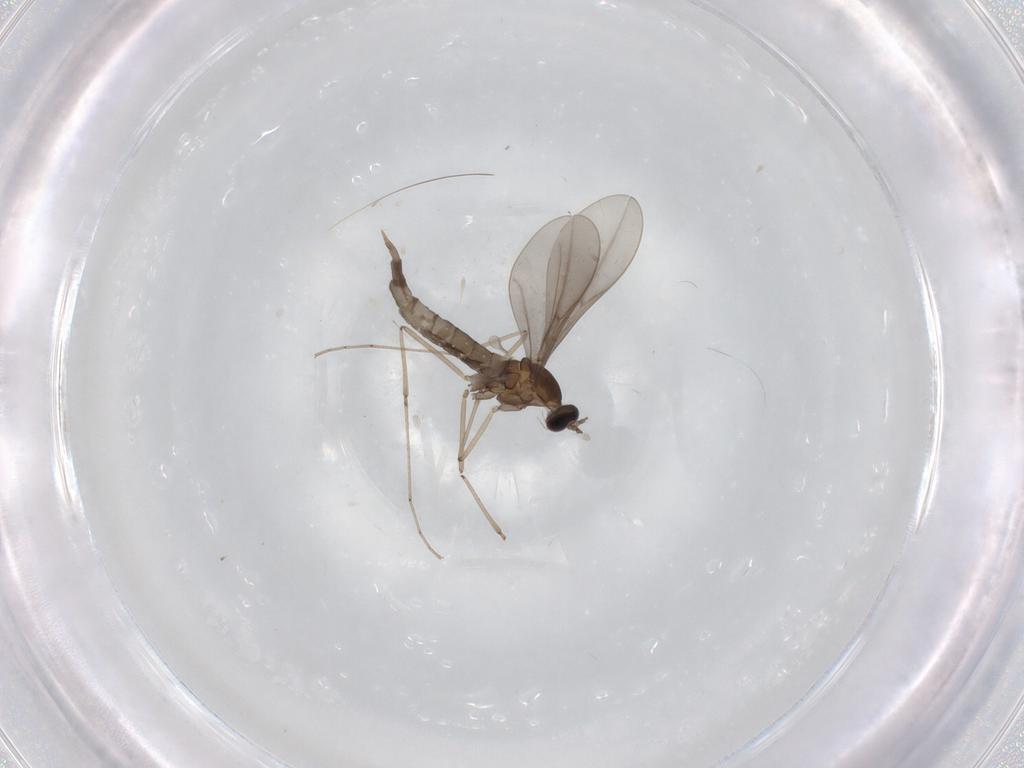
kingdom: Animalia
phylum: Arthropoda
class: Insecta
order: Diptera
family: Cecidomyiidae
